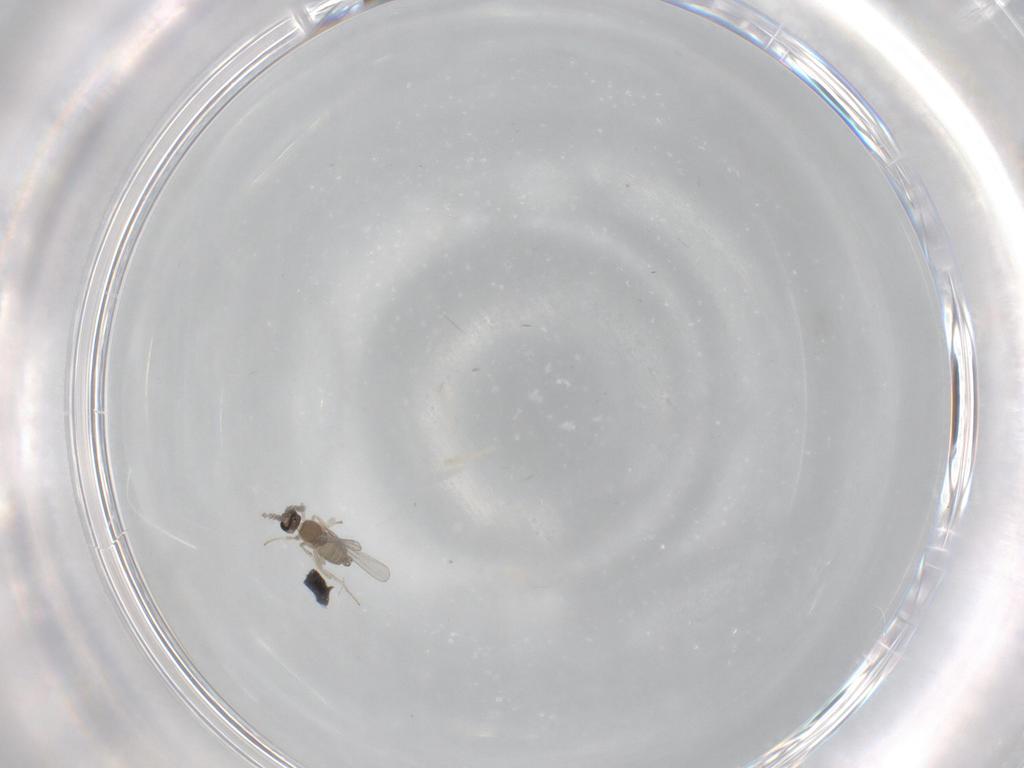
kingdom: Animalia
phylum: Arthropoda
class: Insecta
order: Diptera
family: Cecidomyiidae
